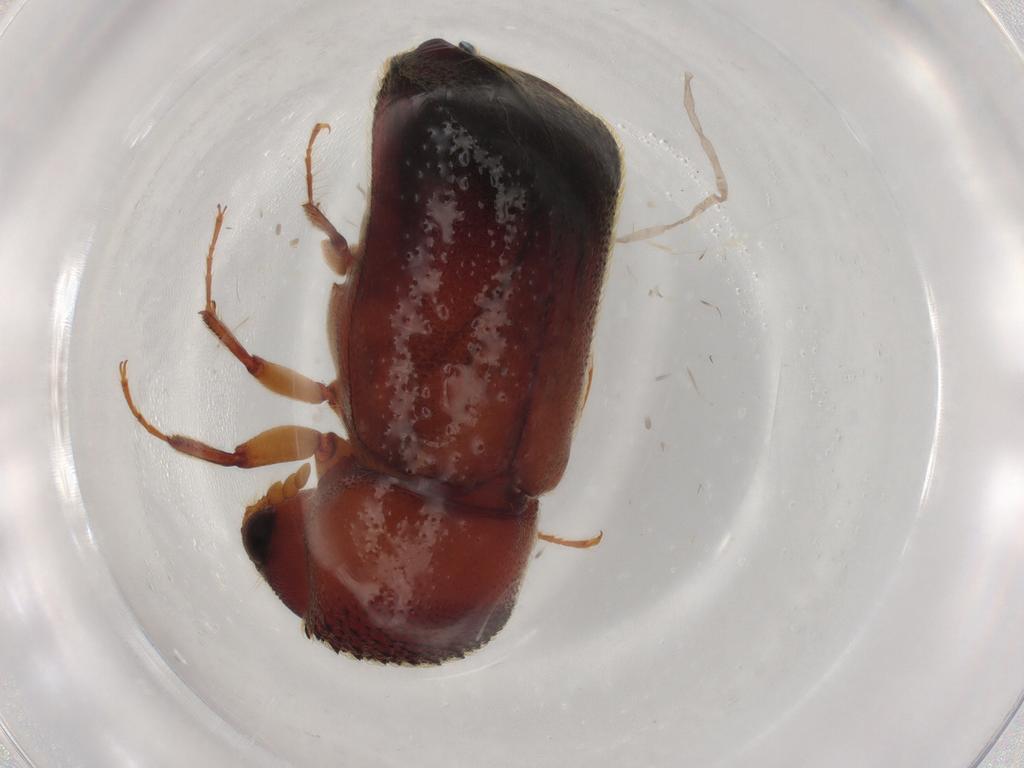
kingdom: Animalia
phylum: Arthropoda
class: Insecta
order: Coleoptera
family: Bostrichidae
